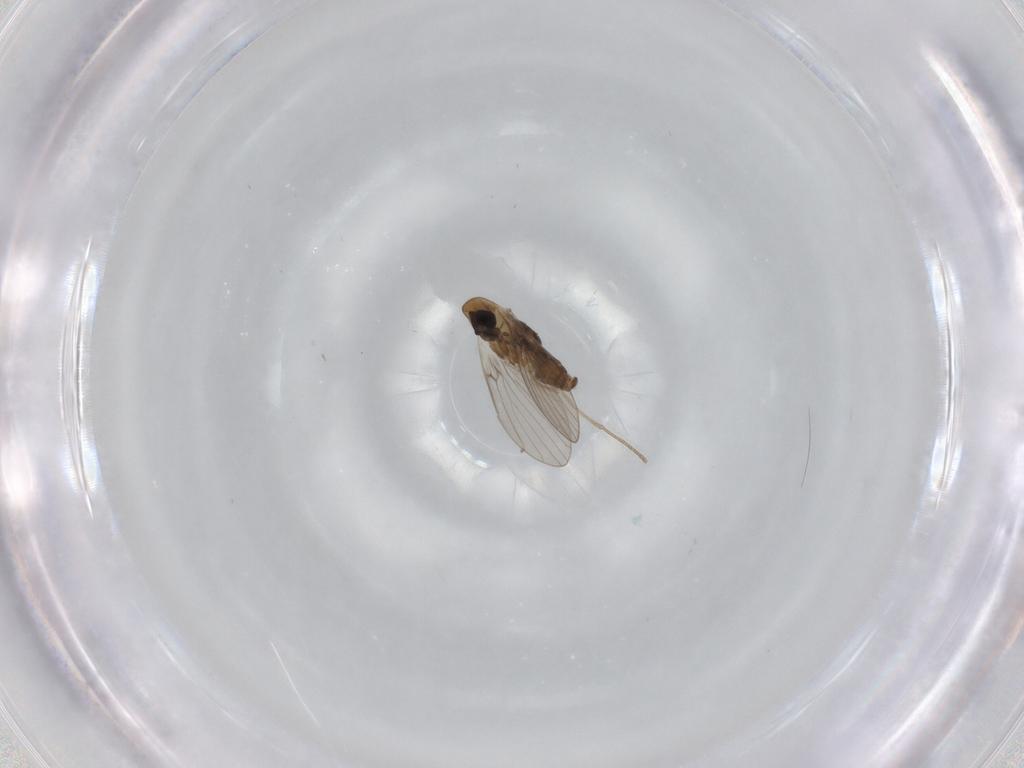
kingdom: Animalia
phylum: Arthropoda
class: Insecta
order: Diptera
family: Psychodidae
